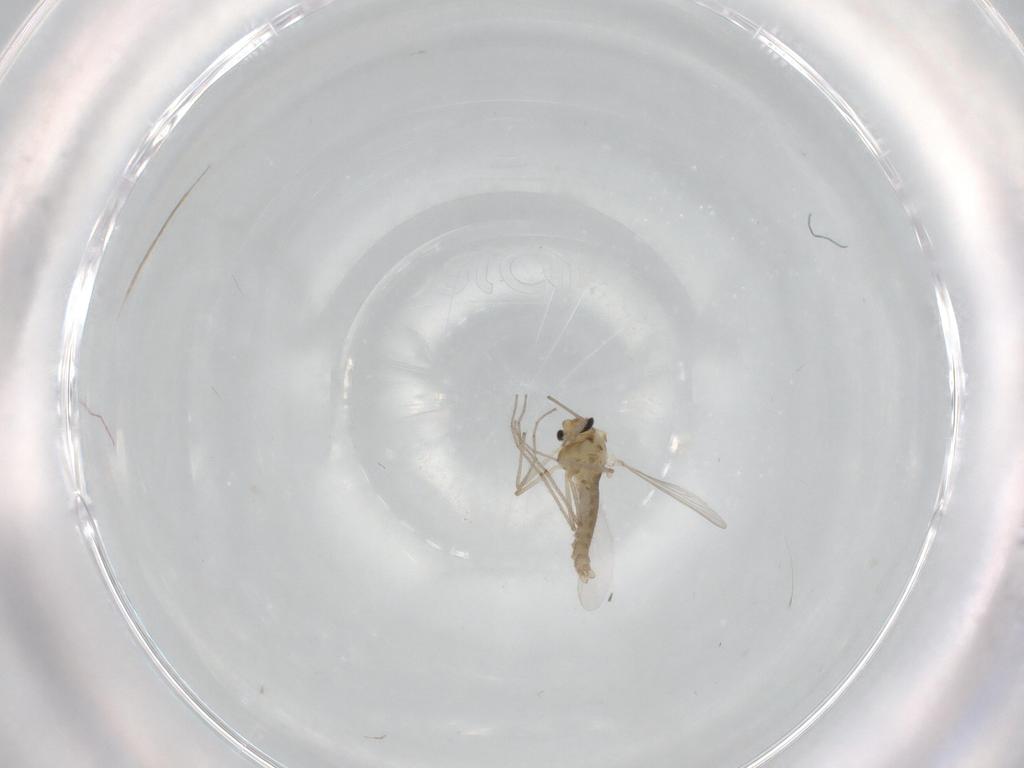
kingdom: Animalia
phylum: Arthropoda
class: Insecta
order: Diptera
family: Chironomidae
